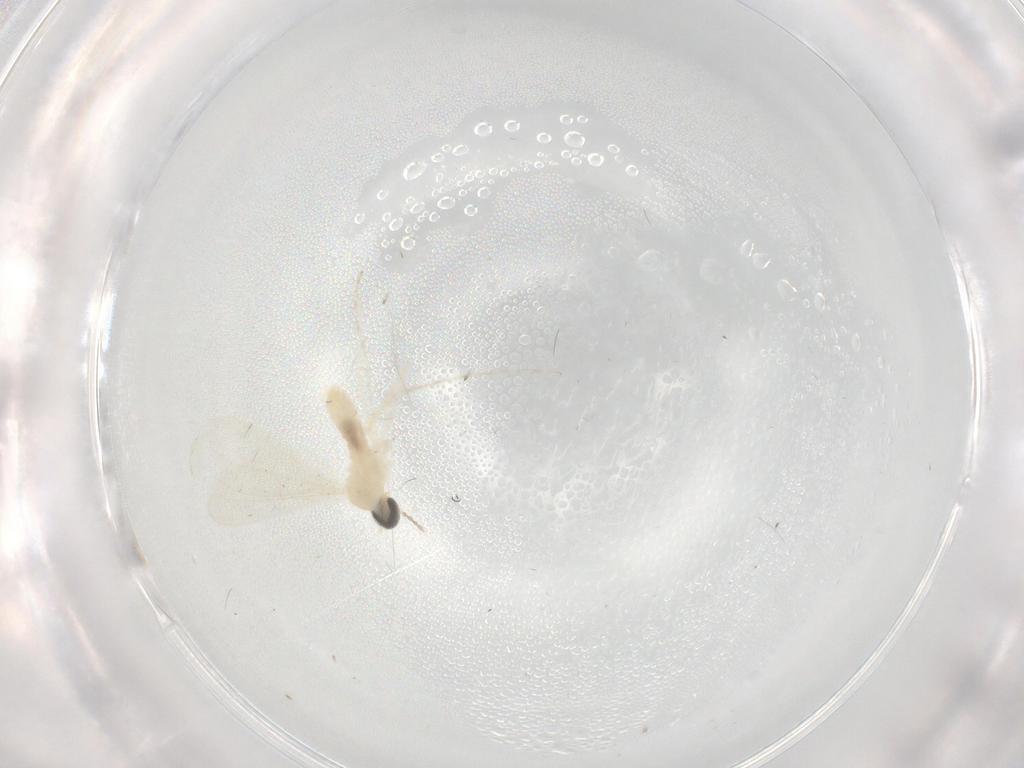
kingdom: Animalia
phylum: Arthropoda
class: Insecta
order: Diptera
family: Cecidomyiidae
